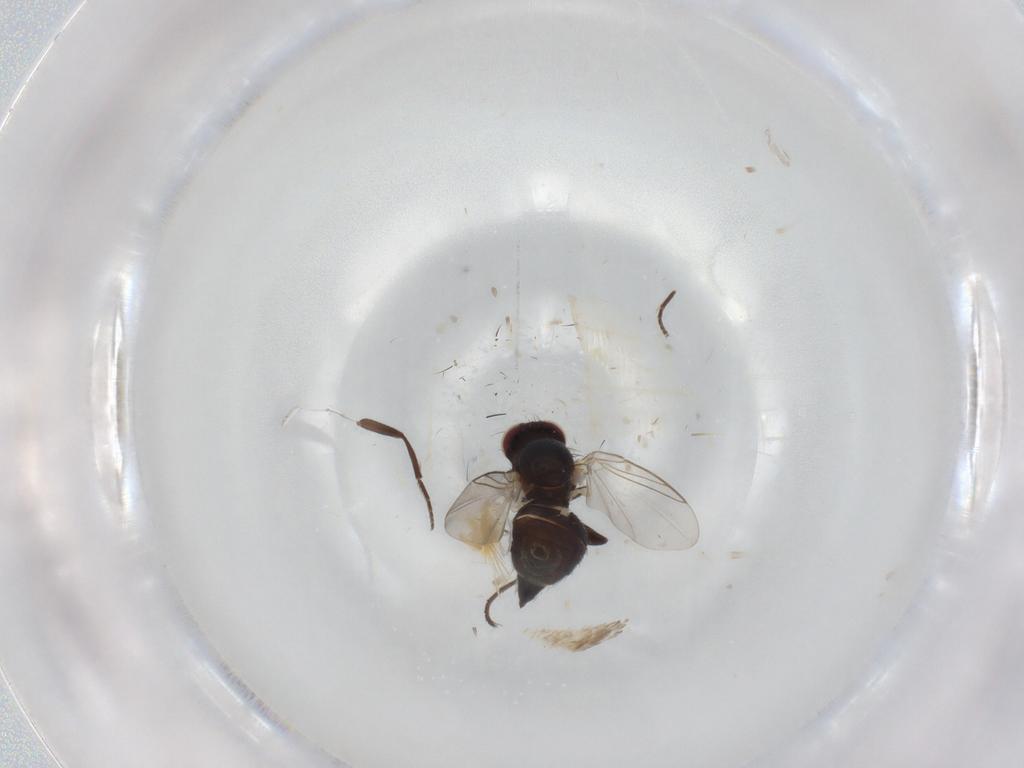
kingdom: Animalia
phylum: Arthropoda
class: Insecta
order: Diptera
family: Dolichopodidae
